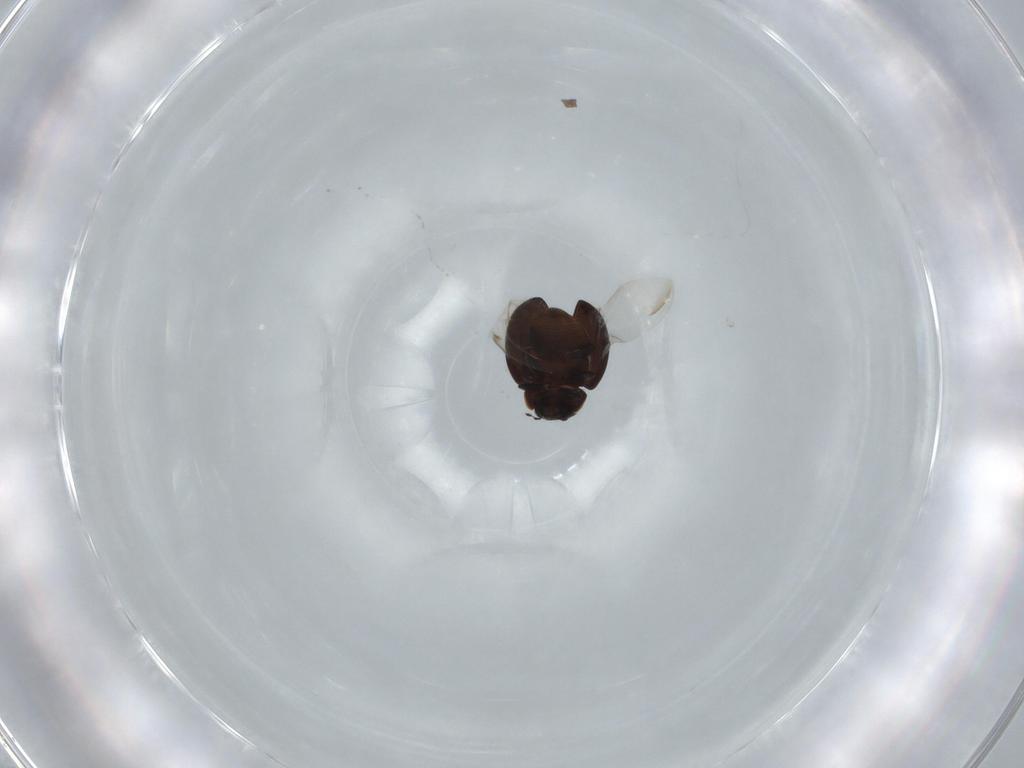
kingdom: Animalia
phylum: Arthropoda
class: Insecta
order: Coleoptera
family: Coccinellidae
